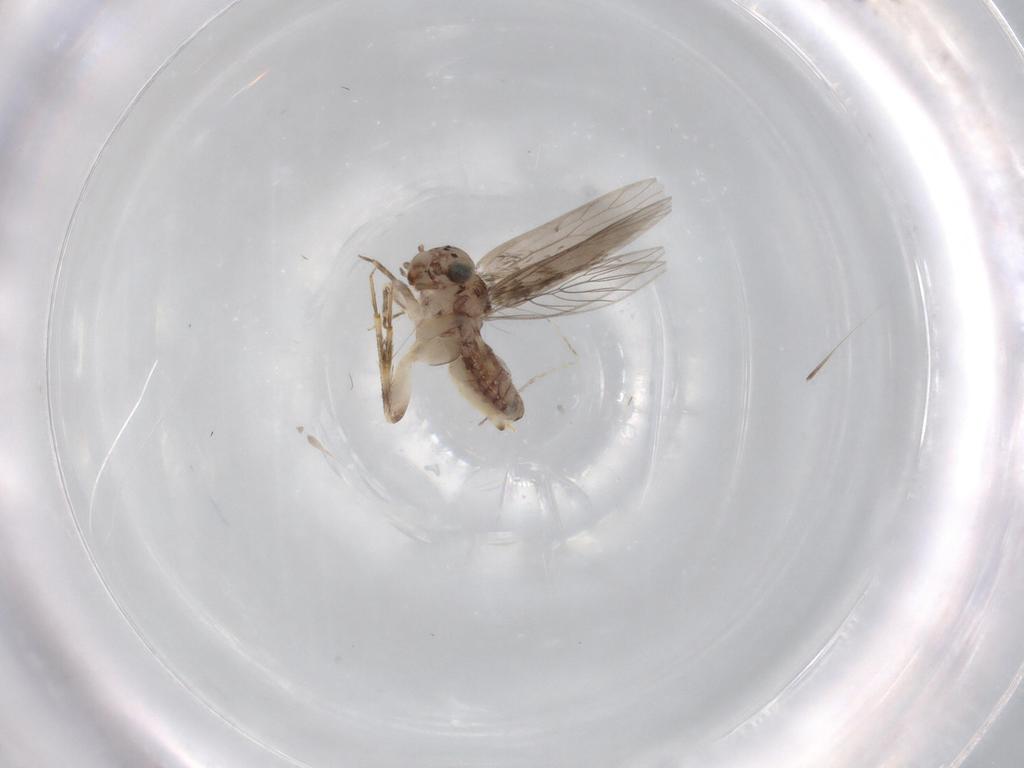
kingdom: Animalia
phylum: Arthropoda
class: Insecta
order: Psocodea
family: Lepidopsocidae
